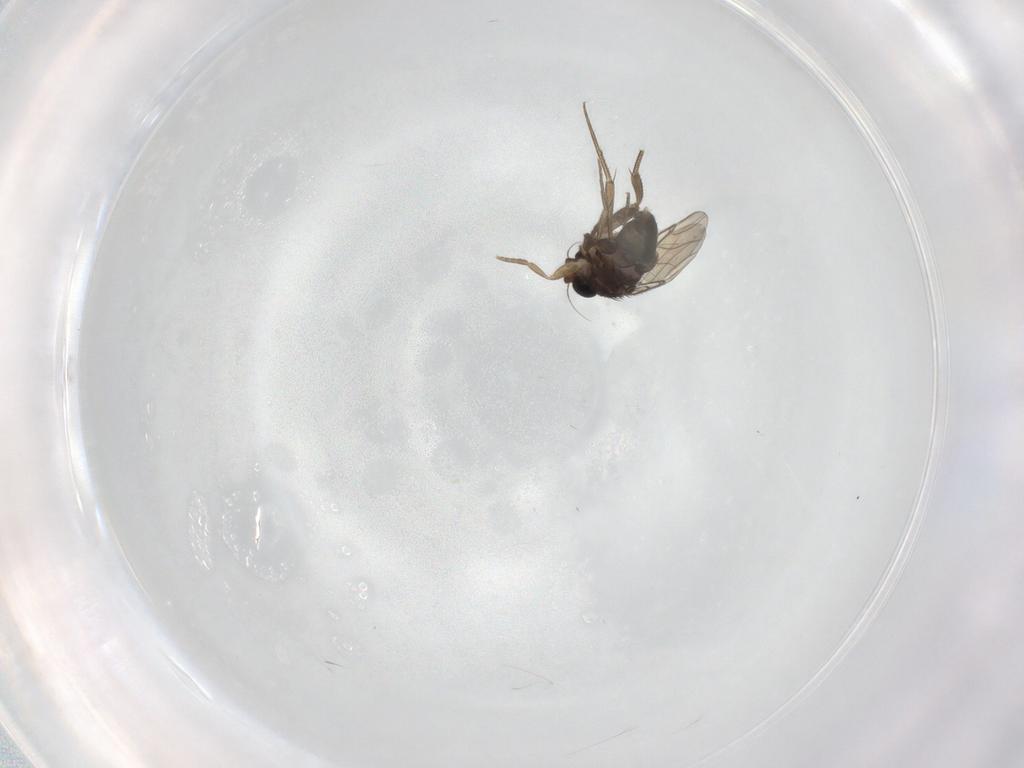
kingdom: Animalia
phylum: Arthropoda
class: Insecta
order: Diptera
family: Phoridae
